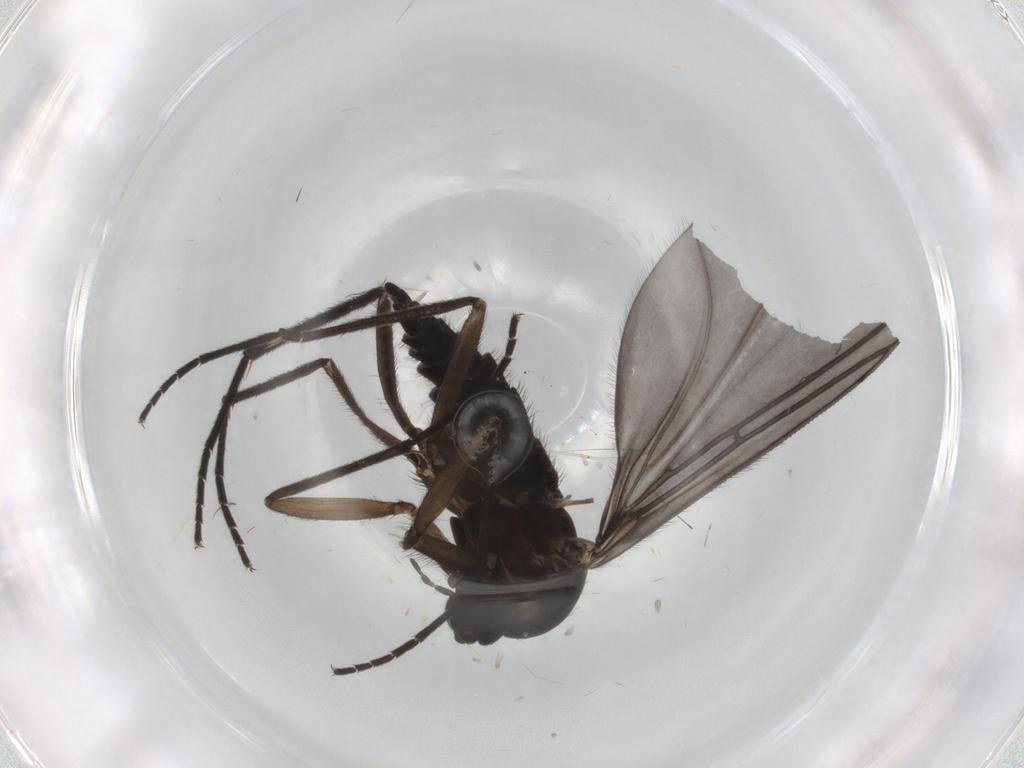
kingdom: Animalia
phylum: Arthropoda
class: Insecta
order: Diptera
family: Sciaridae
